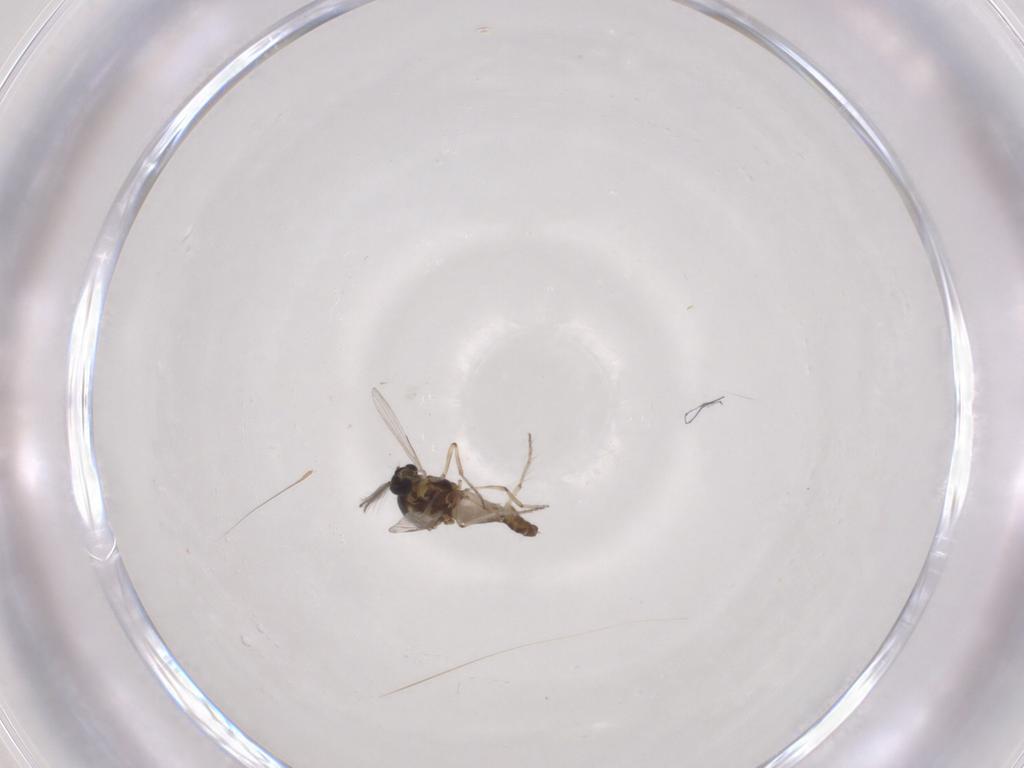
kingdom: Animalia
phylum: Arthropoda
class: Insecta
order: Diptera
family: Ceratopogonidae
